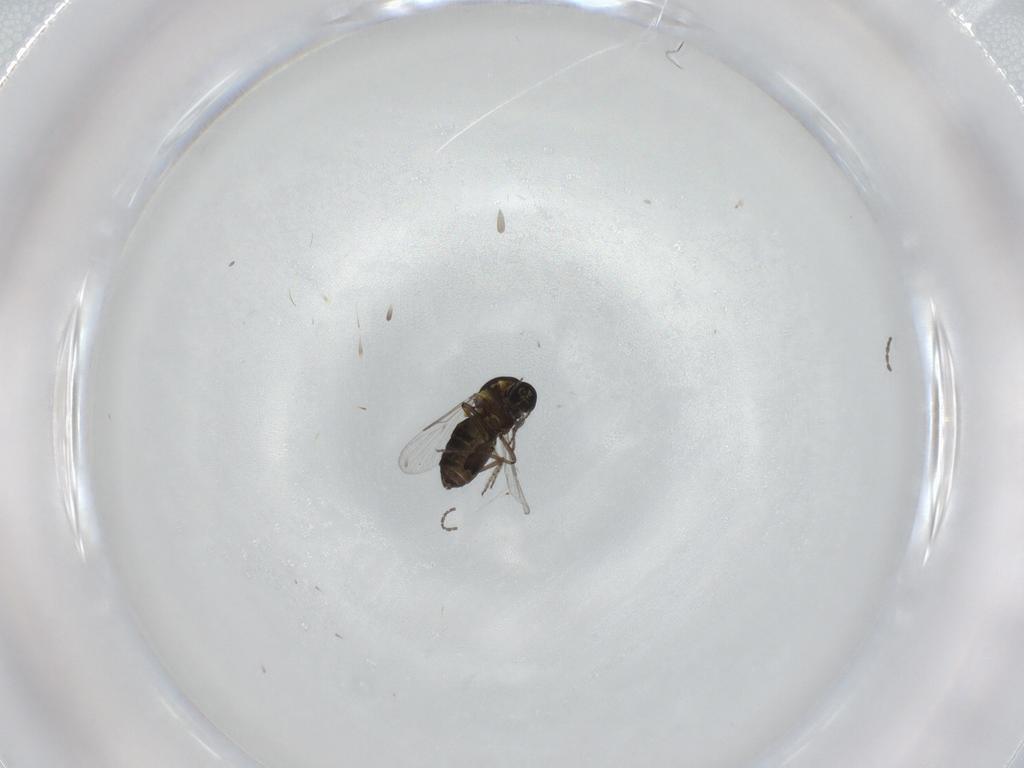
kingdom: Animalia
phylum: Arthropoda
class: Insecta
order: Diptera
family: Ceratopogonidae
